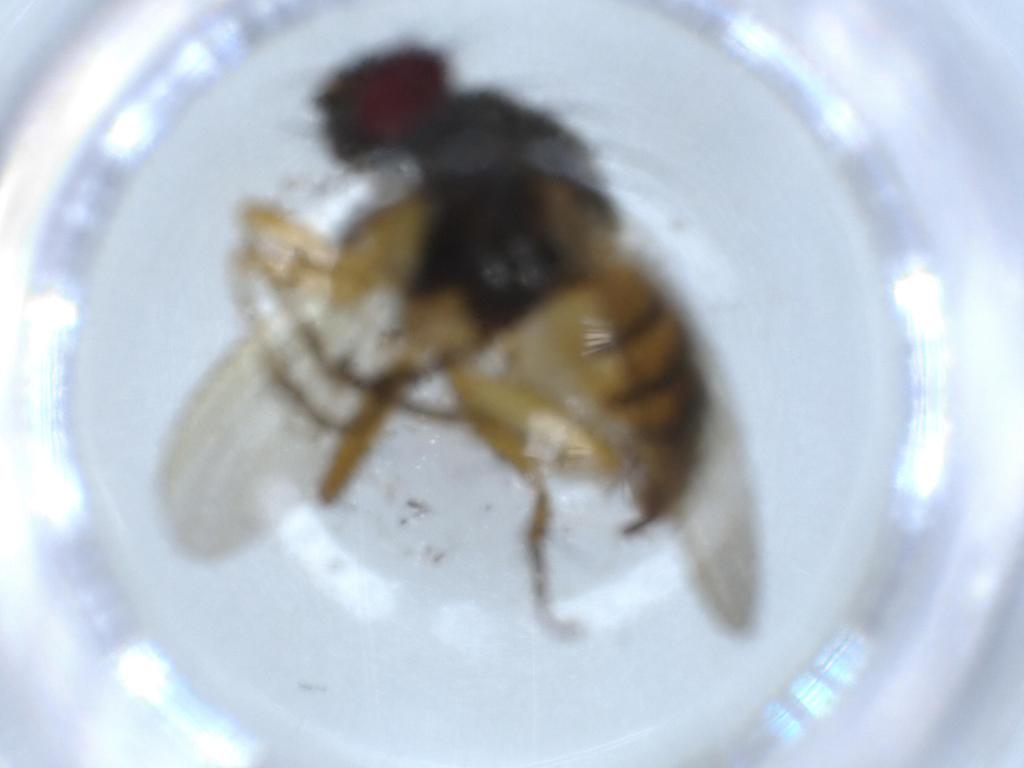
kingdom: Animalia
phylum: Arthropoda
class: Insecta
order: Diptera
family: Muscidae
